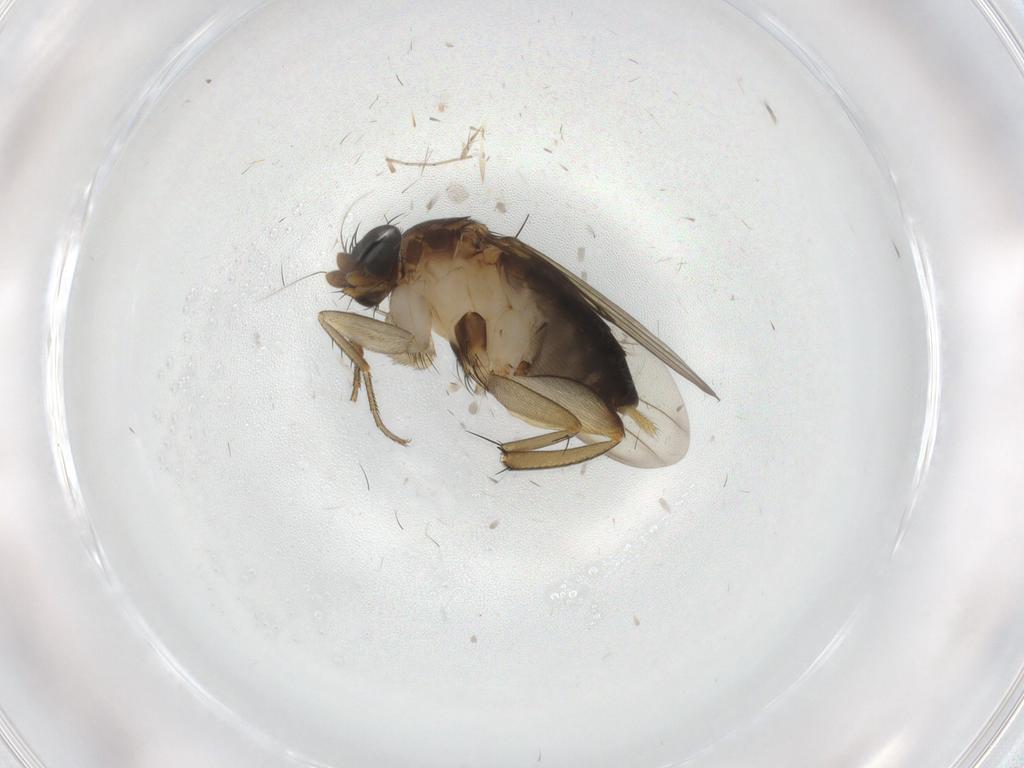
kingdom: Animalia
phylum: Arthropoda
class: Insecta
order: Diptera
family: Phoridae
